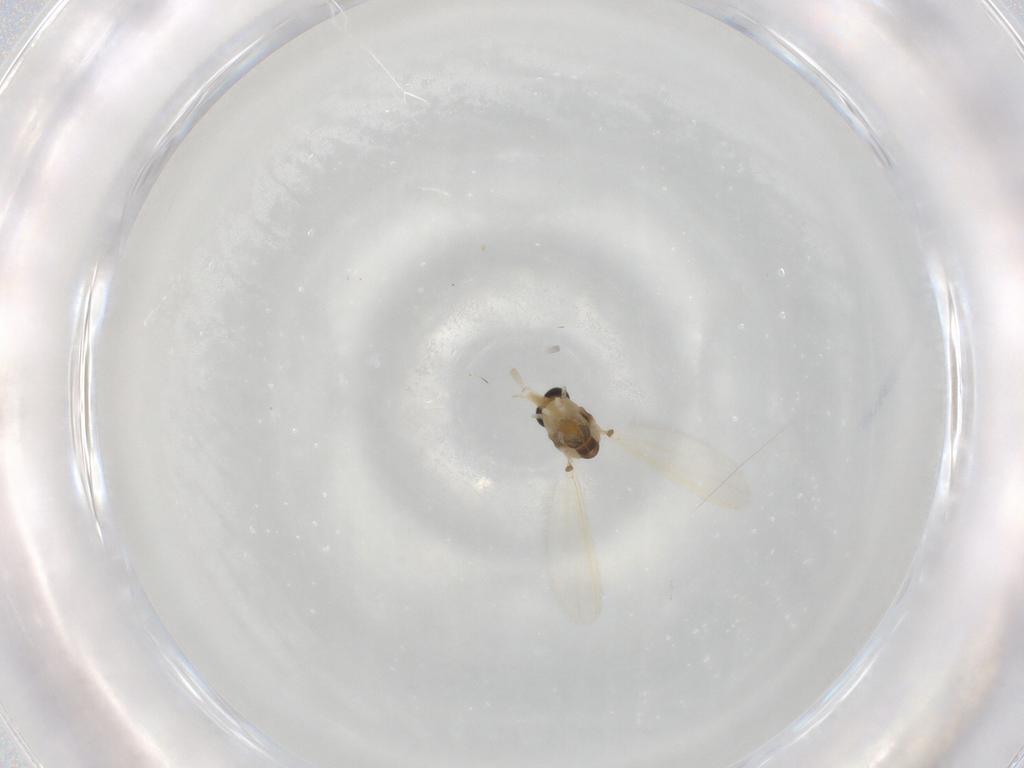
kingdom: Animalia
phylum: Arthropoda
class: Insecta
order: Diptera
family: Chironomidae
